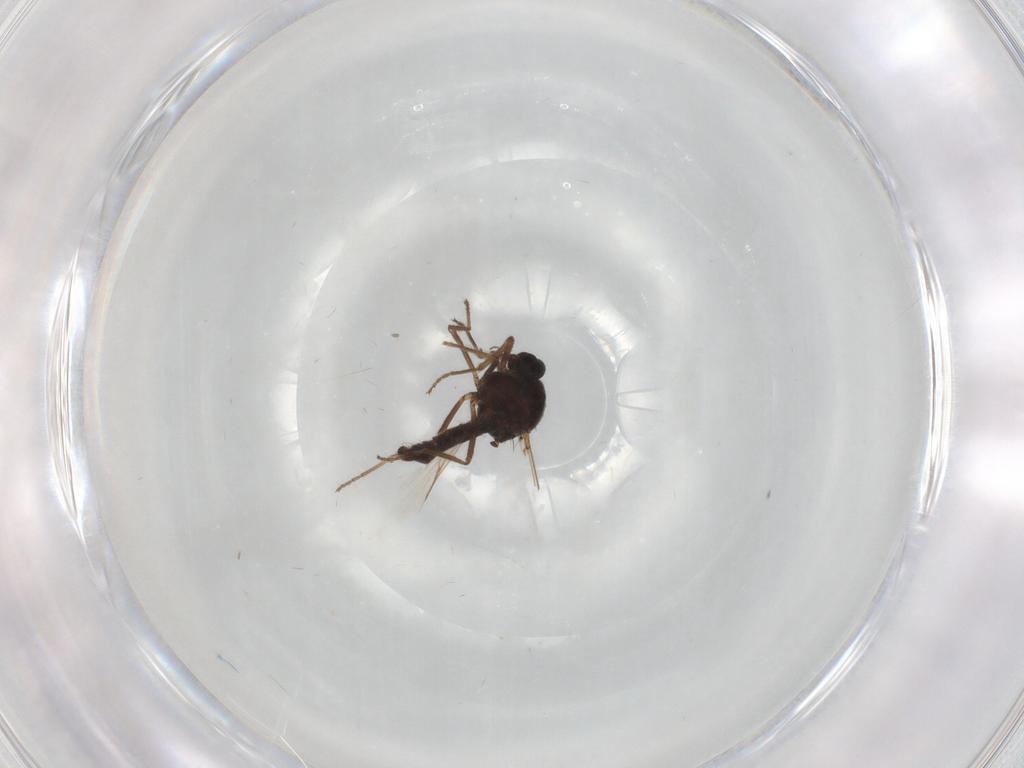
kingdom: Animalia
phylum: Arthropoda
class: Insecta
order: Diptera
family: Ceratopogonidae
